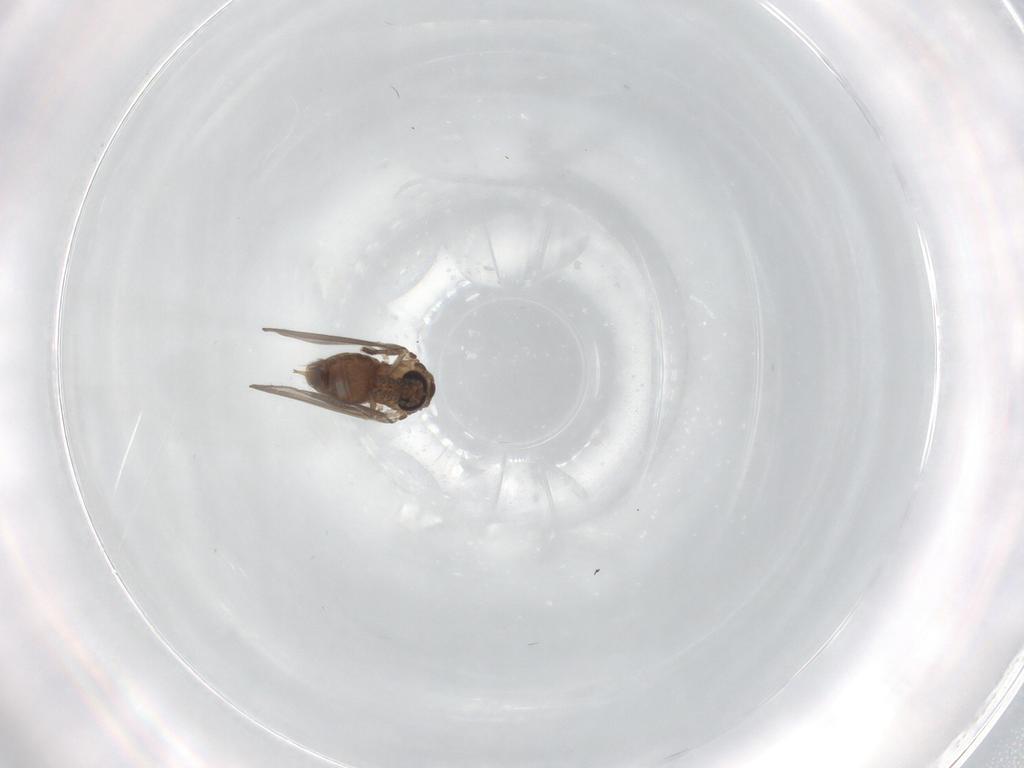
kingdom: Animalia
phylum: Arthropoda
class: Insecta
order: Diptera
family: Psychodidae
